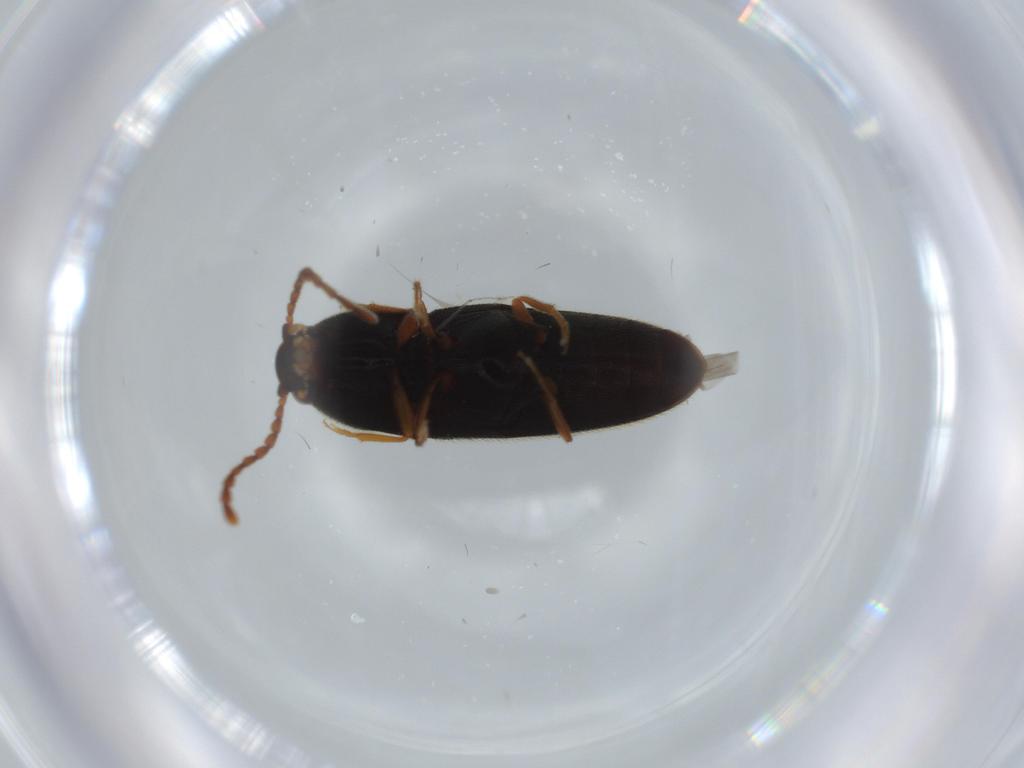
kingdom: Animalia
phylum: Arthropoda
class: Insecta
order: Coleoptera
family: Elateridae
